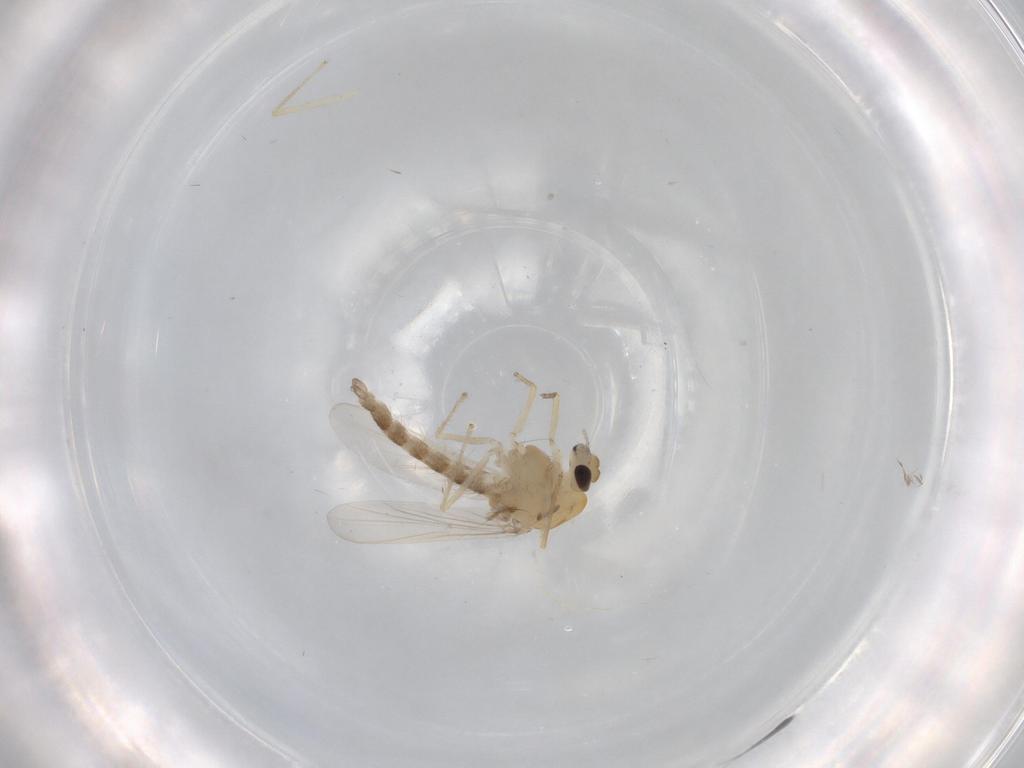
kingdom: Animalia
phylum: Arthropoda
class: Insecta
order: Diptera
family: Chironomidae
